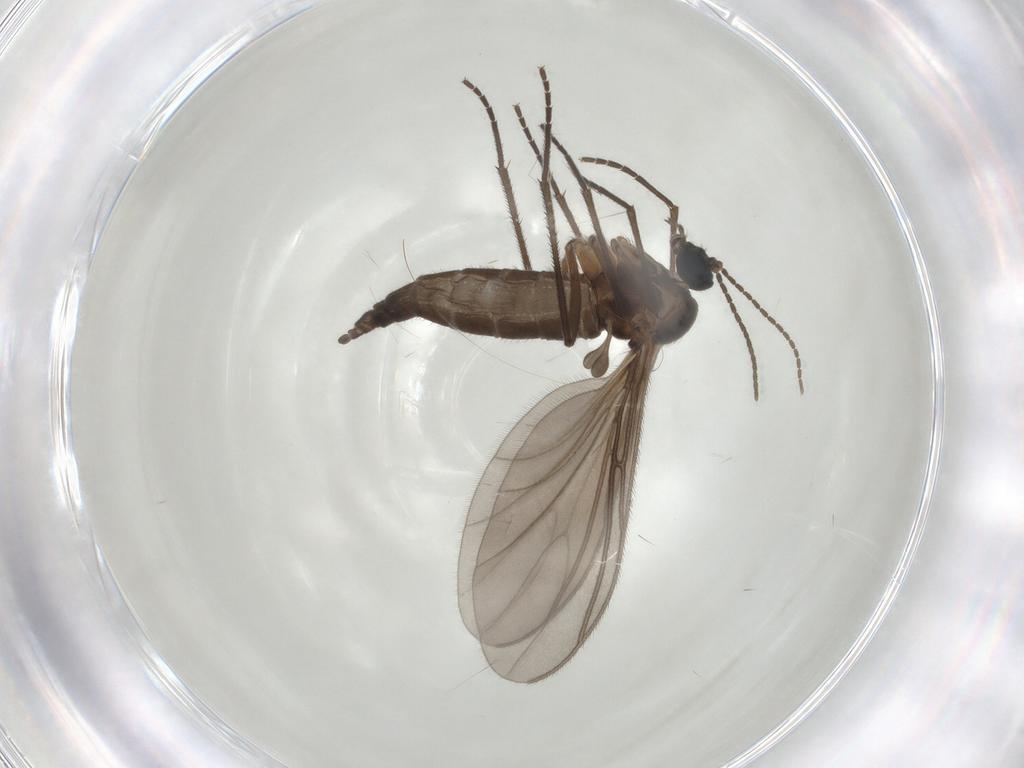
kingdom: Animalia
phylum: Arthropoda
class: Insecta
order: Diptera
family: Sciaridae
